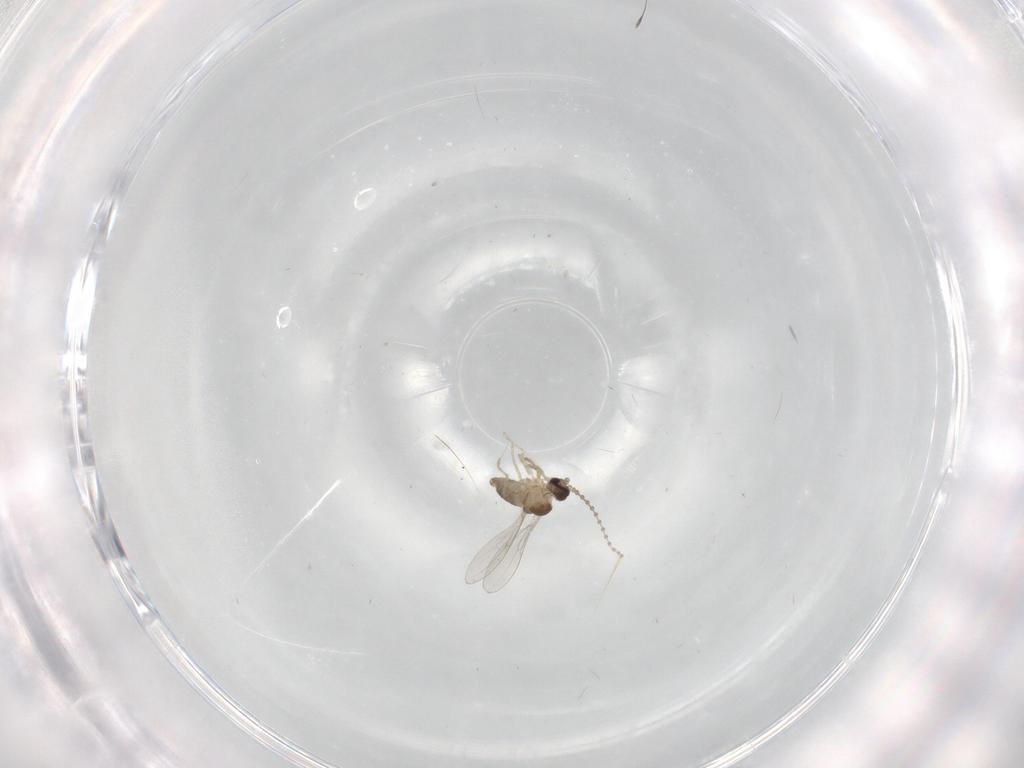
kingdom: Animalia
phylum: Arthropoda
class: Insecta
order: Diptera
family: Cecidomyiidae
